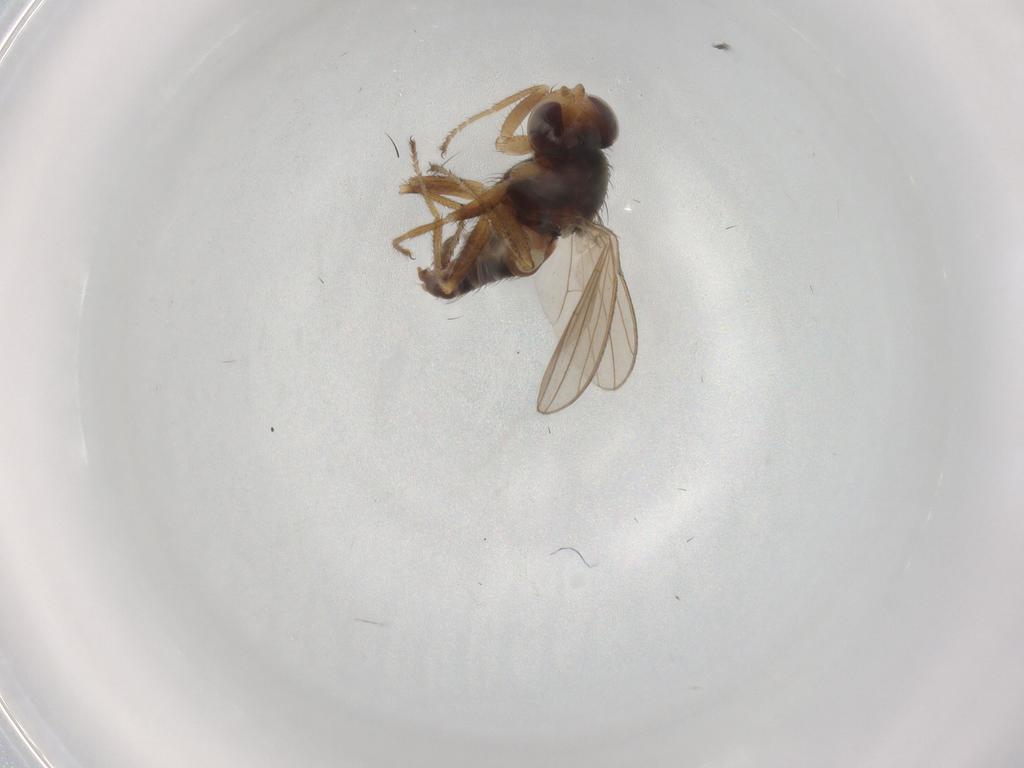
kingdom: Animalia
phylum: Arthropoda
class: Insecta
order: Diptera
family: Canacidae
